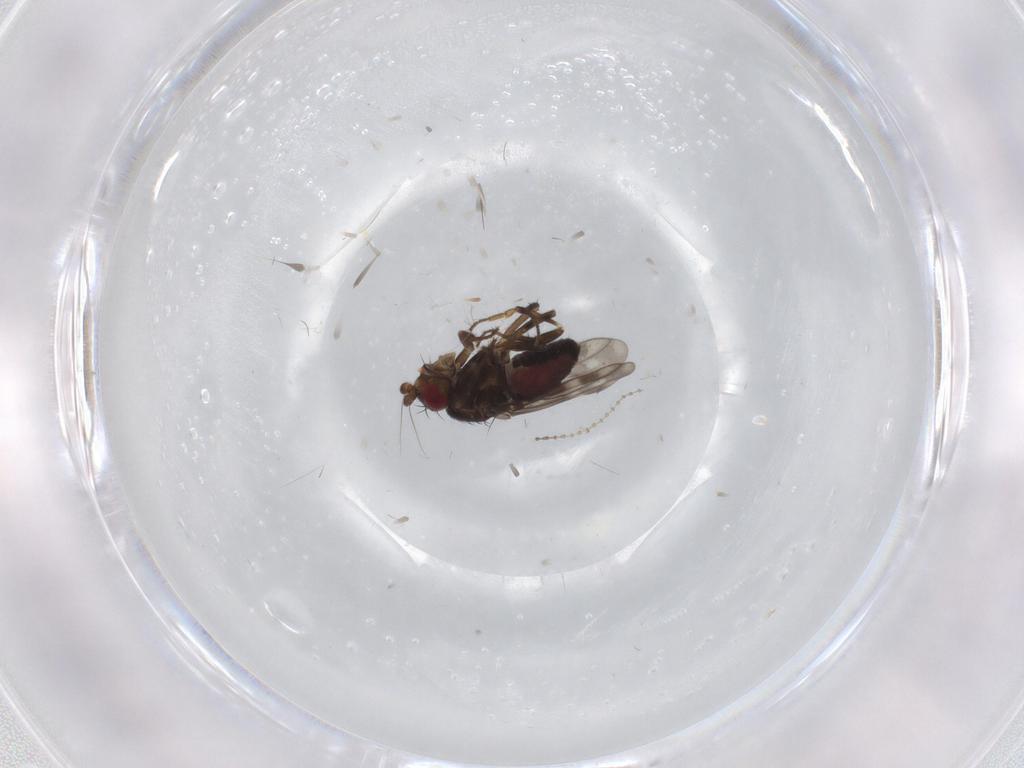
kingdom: Animalia
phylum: Arthropoda
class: Insecta
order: Diptera
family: Sphaeroceridae
